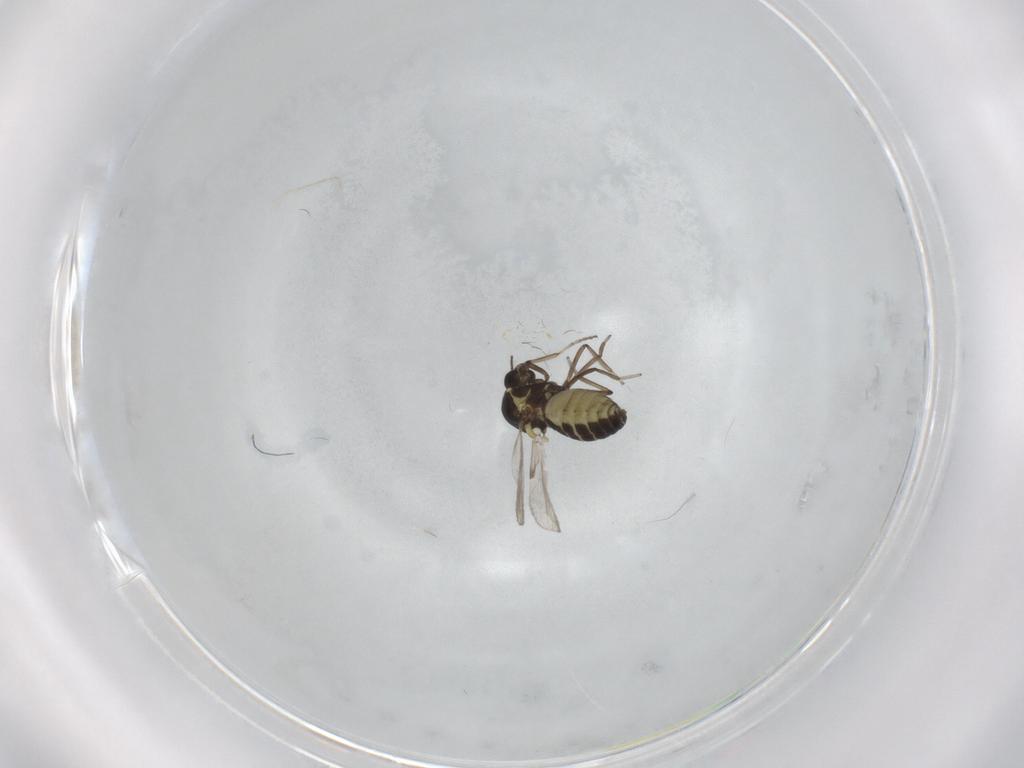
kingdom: Animalia
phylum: Arthropoda
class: Insecta
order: Diptera
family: Ceratopogonidae
